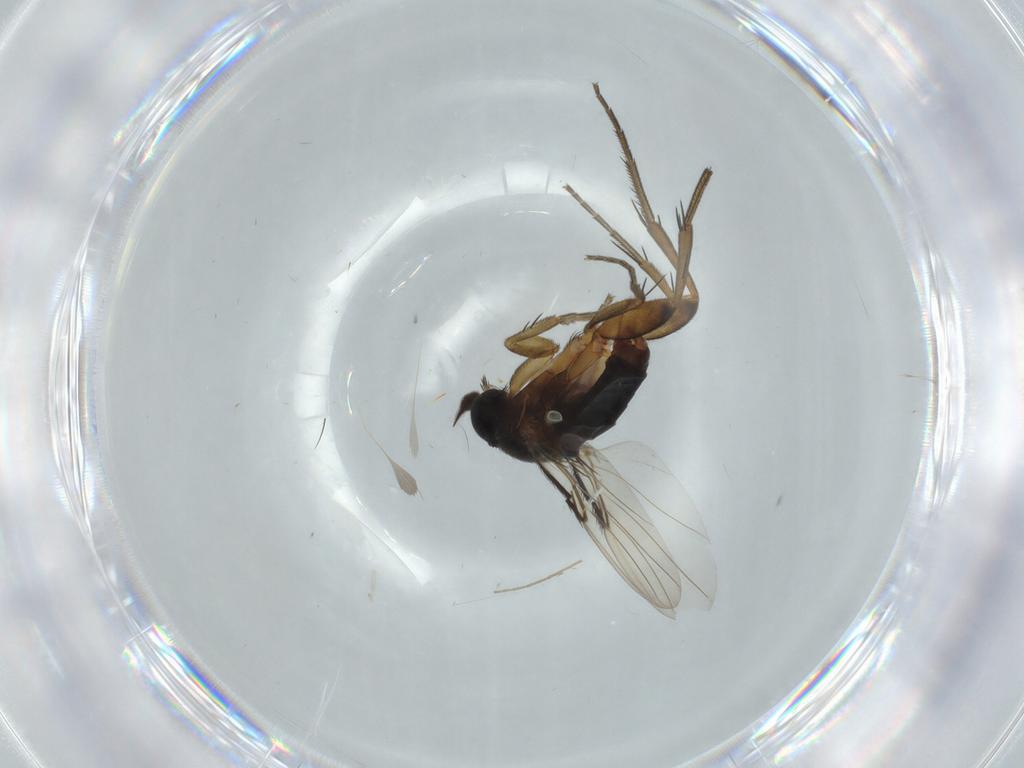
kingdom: Animalia
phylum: Arthropoda
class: Insecta
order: Diptera
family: Phoridae
